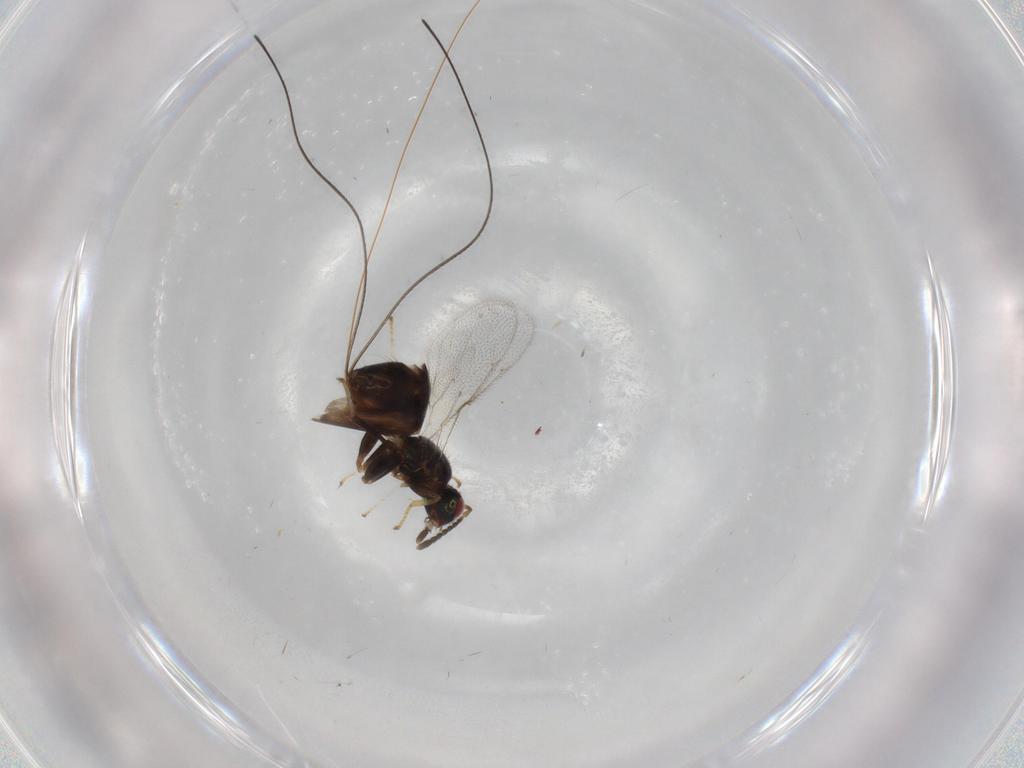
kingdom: Animalia
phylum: Arthropoda
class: Insecta
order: Hymenoptera
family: Torymidae
